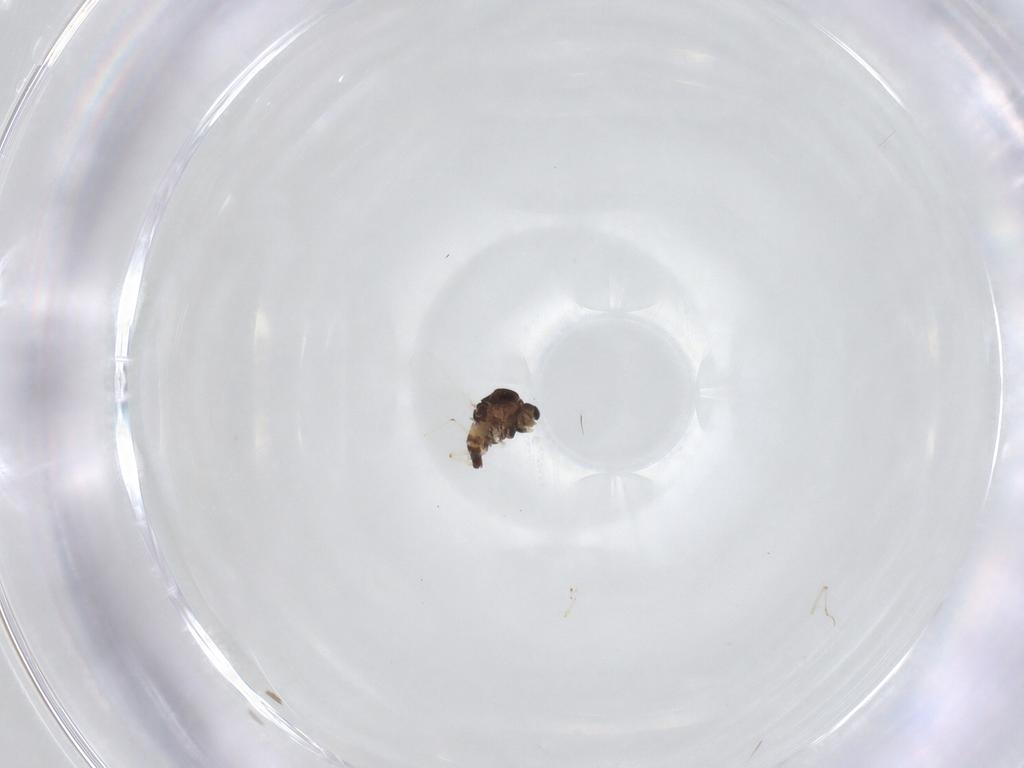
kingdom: Animalia
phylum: Arthropoda
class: Insecta
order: Diptera
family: Chironomidae
